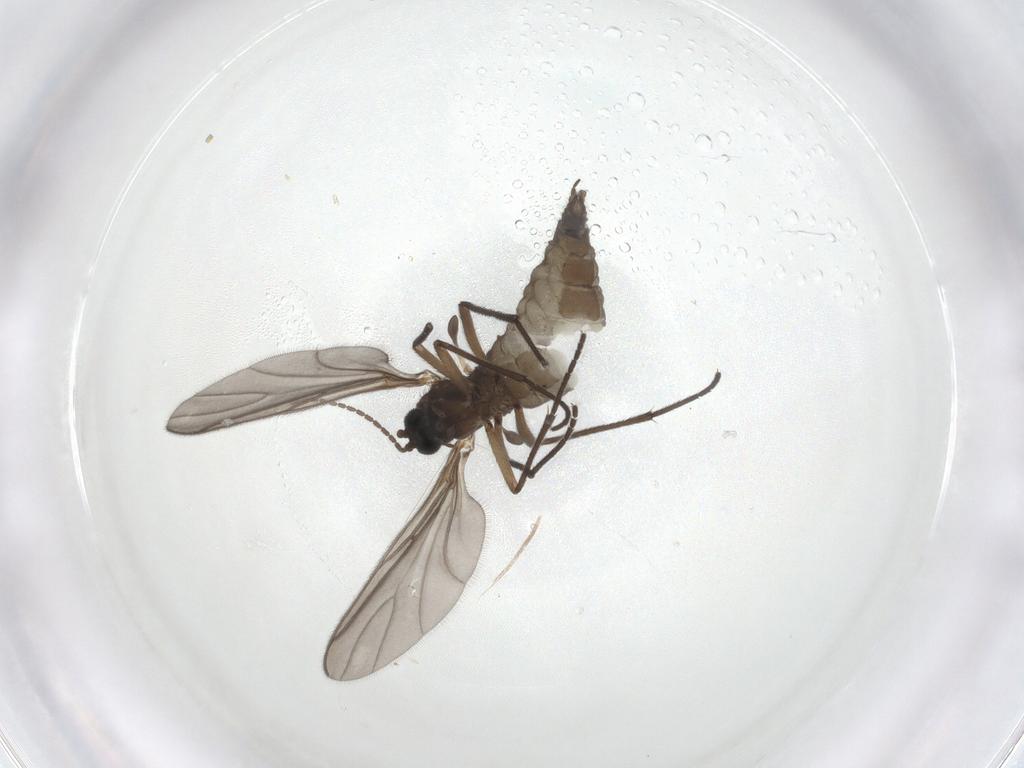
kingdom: Animalia
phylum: Arthropoda
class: Insecta
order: Diptera
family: Sciaridae
